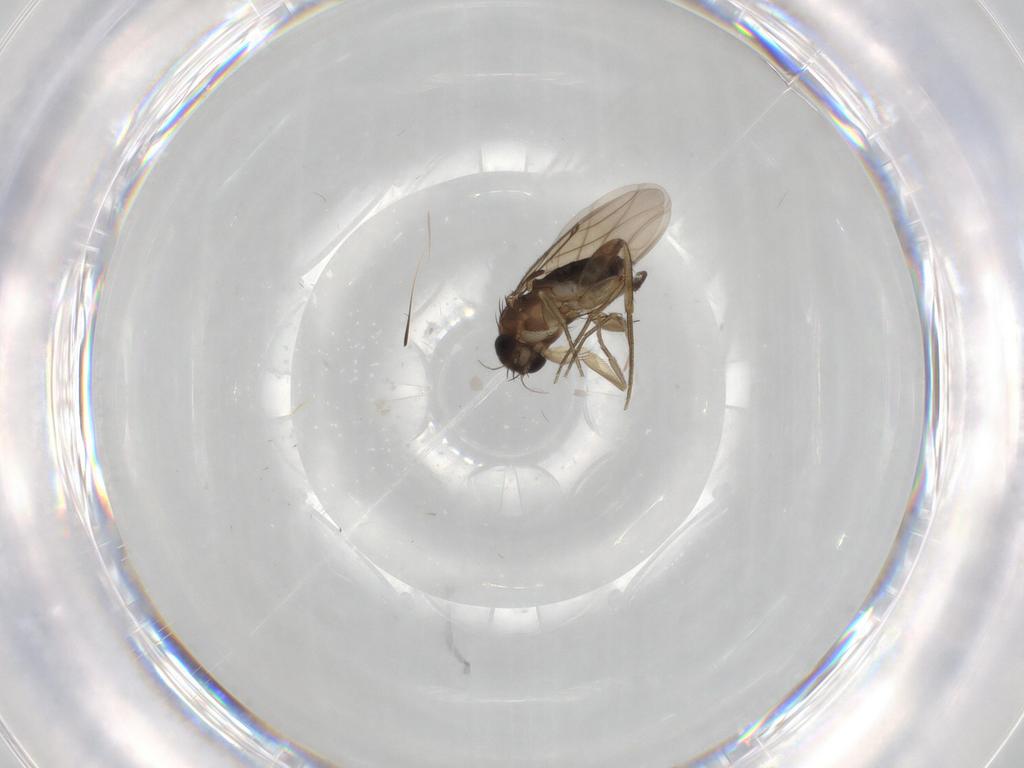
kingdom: Animalia
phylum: Arthropoda
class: Insecta
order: Diptera
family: Phoridae
